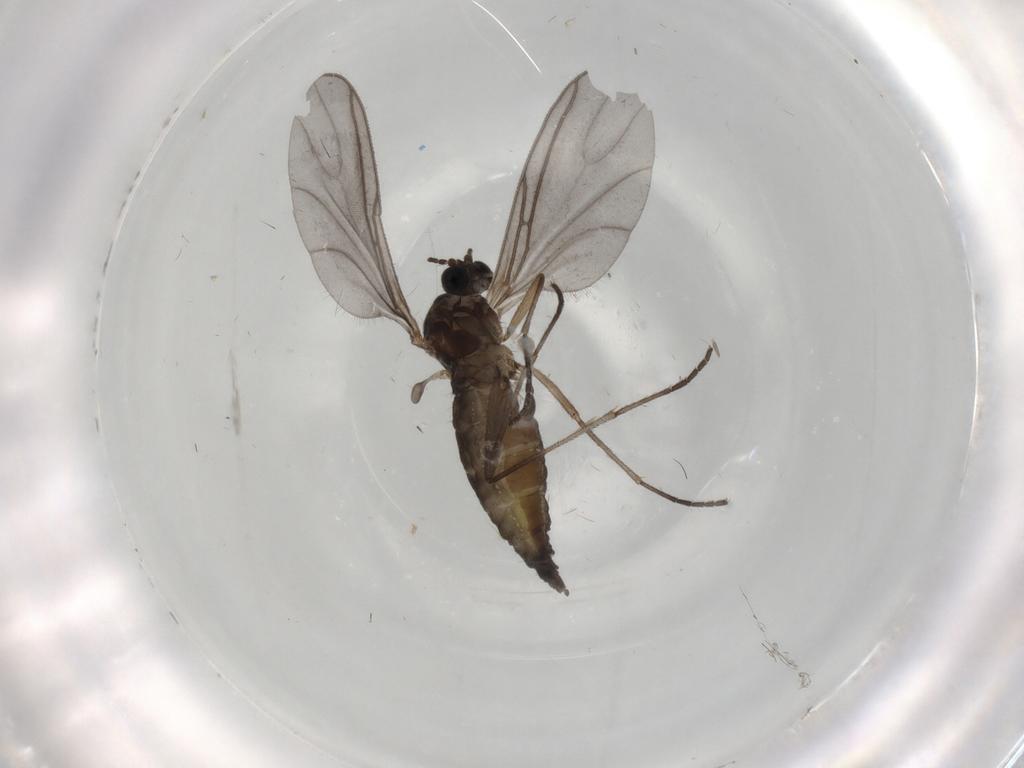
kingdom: Animalia
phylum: Arthropoda
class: Insecta
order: Diptera
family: Sciaridae
